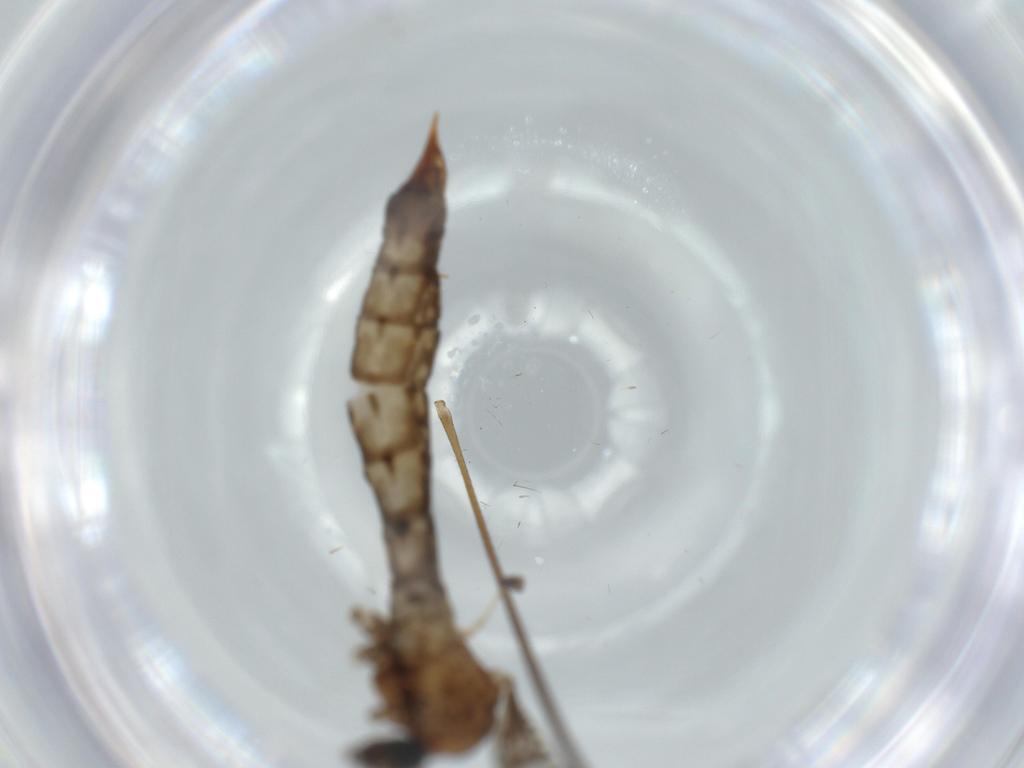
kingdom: Animalia
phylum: Arthropoda
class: Insecta
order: Diptera
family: Limoniidae
